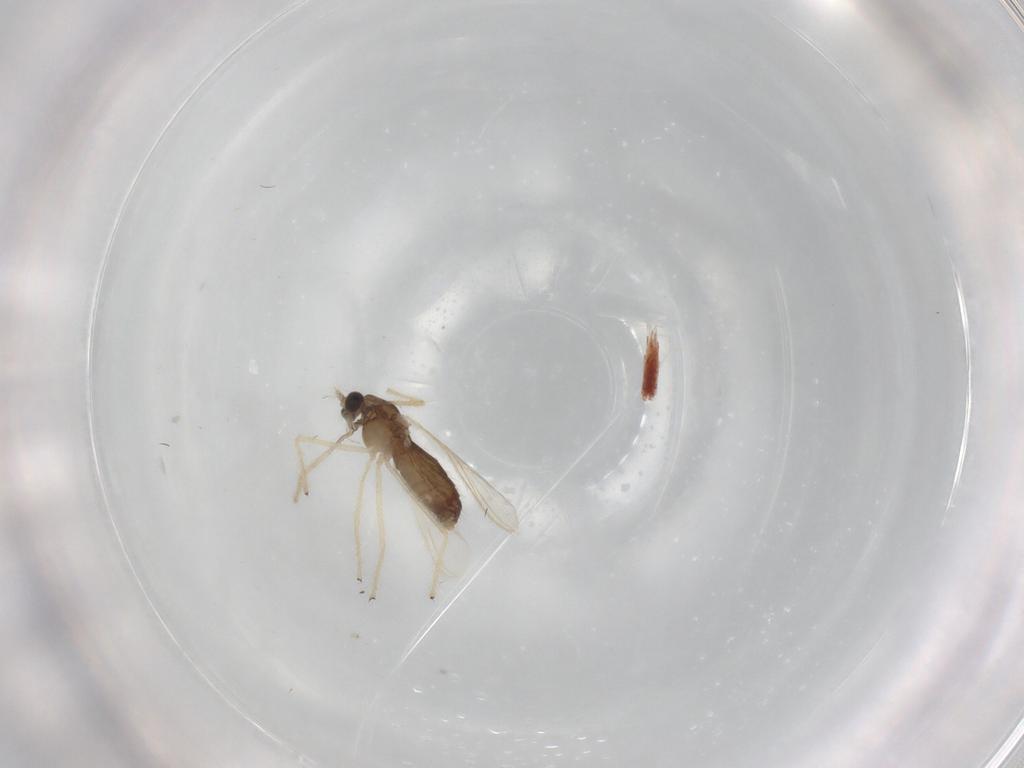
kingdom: Animalia
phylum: Arthropoda
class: Insecta
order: Diptera
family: Chironomidae
